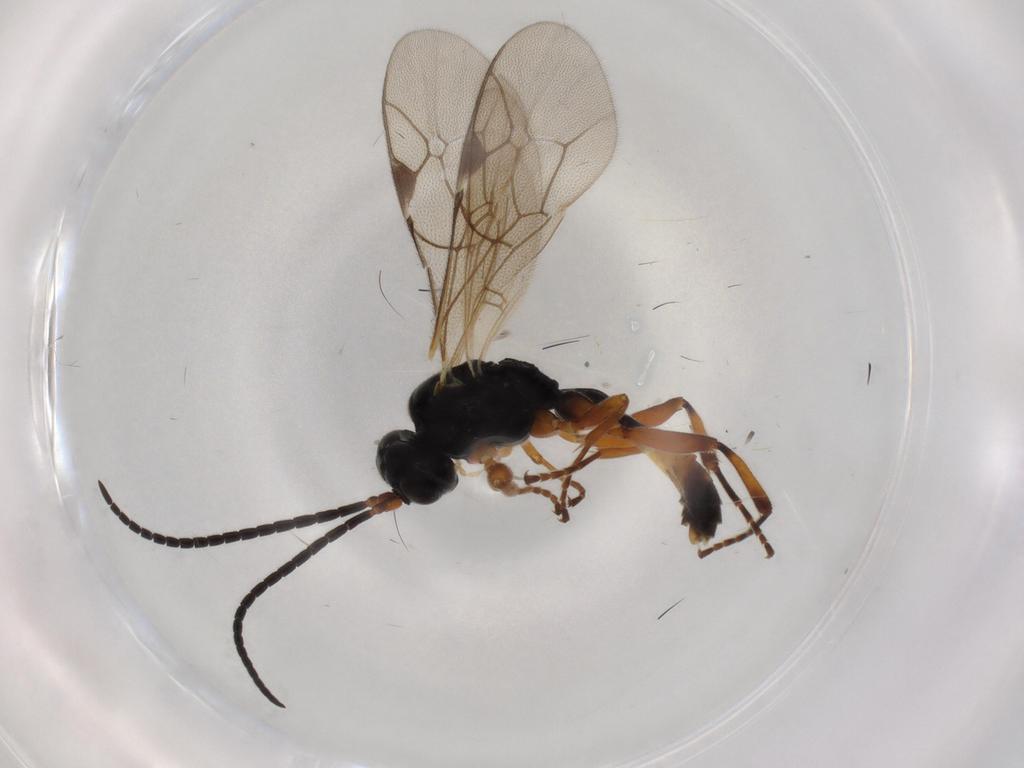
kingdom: Animalia
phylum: Arthropoda
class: Insecta
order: Hymenoptera
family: Ichneumonidae
